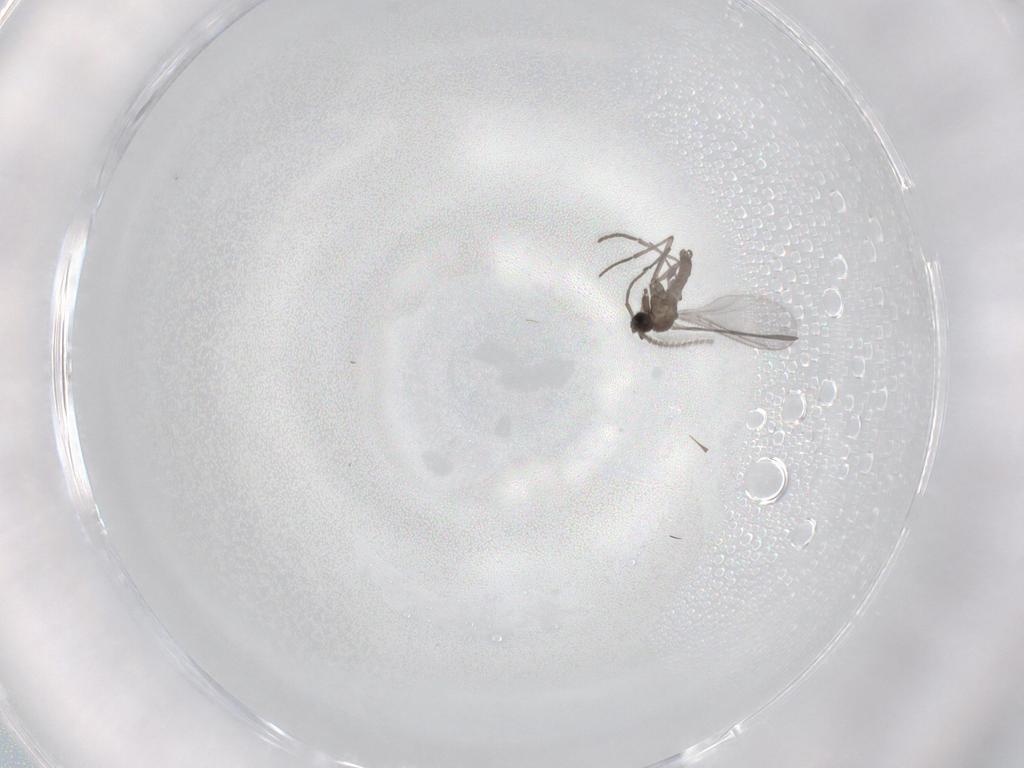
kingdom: Animalia
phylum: Arthropoda
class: Insecta
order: Diptera
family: Sciaridae
